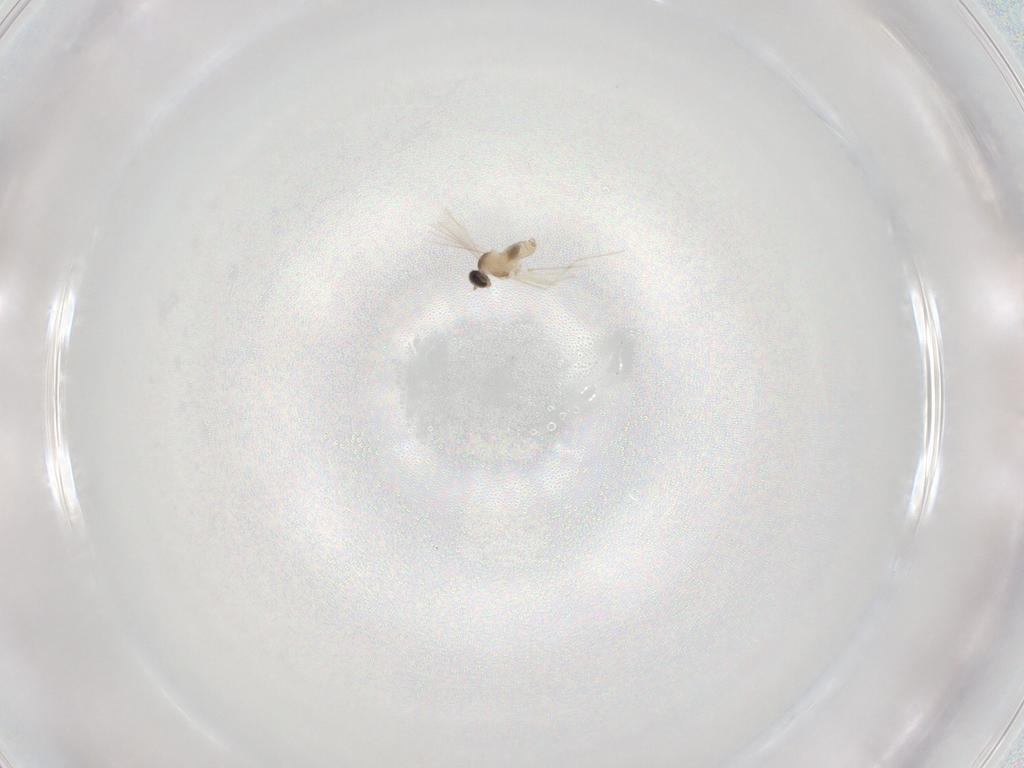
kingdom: Animalia
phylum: Arthropoda
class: Insecta
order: Diptera
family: Cecidomyiidae
